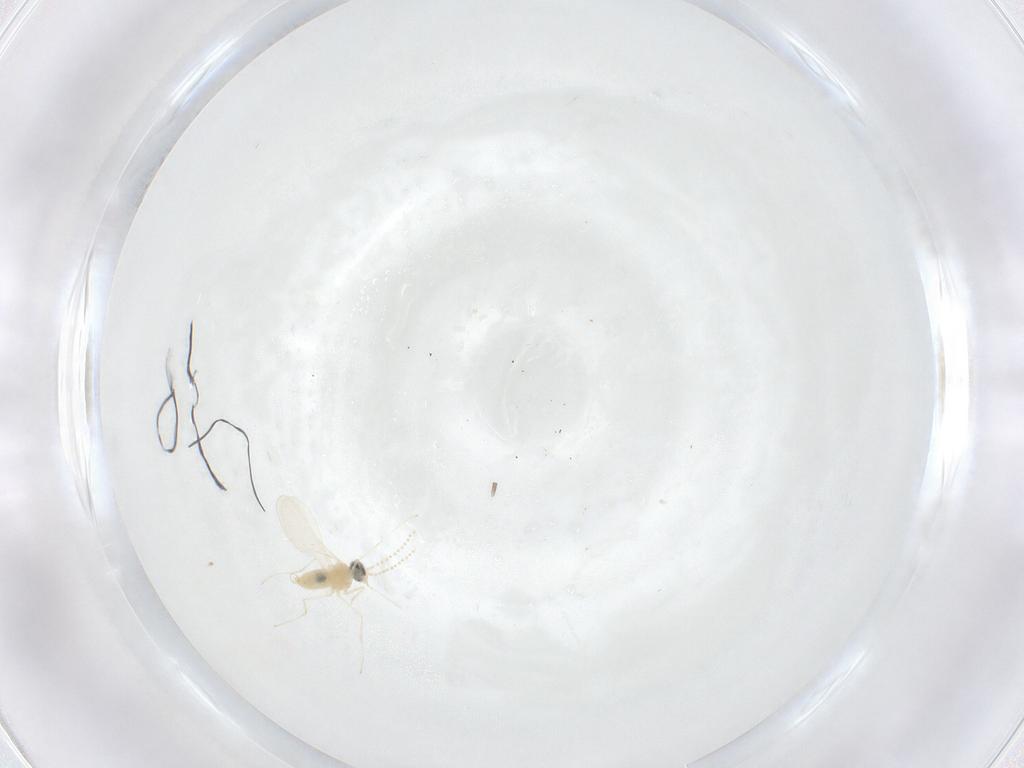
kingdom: Animalia
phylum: Arthropoda
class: Insecta
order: Diptera
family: Cecidomyiidae
